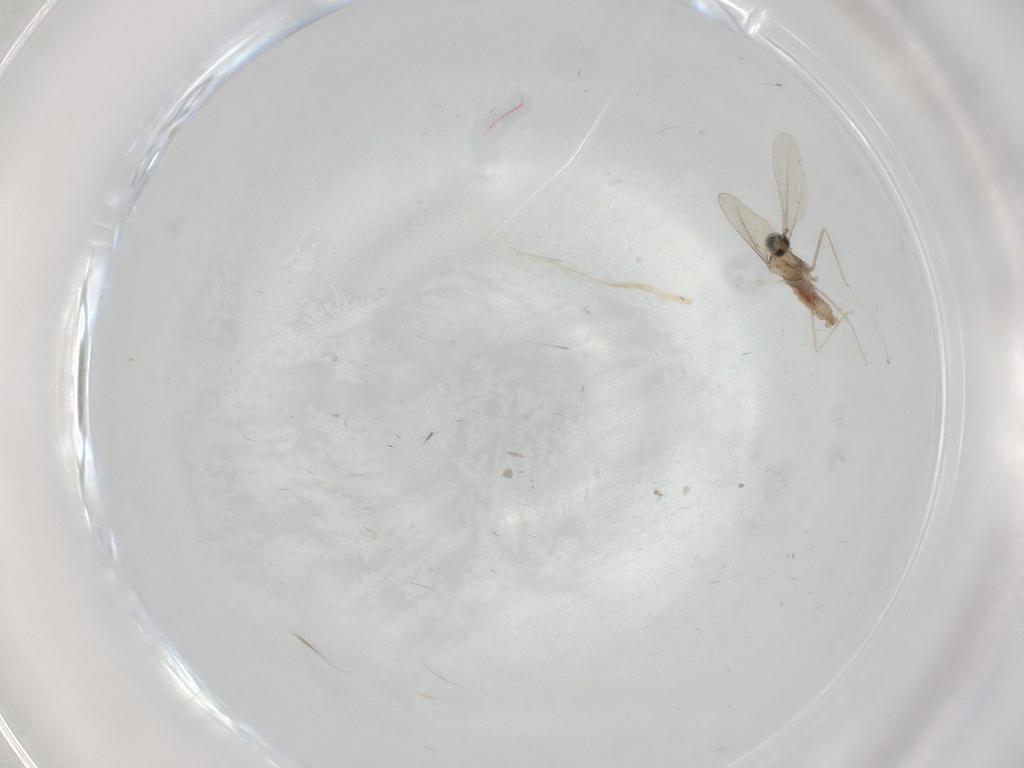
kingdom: Animalia
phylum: Arthropoda
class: Insecta
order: Diptera
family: Cecidomyiidae
